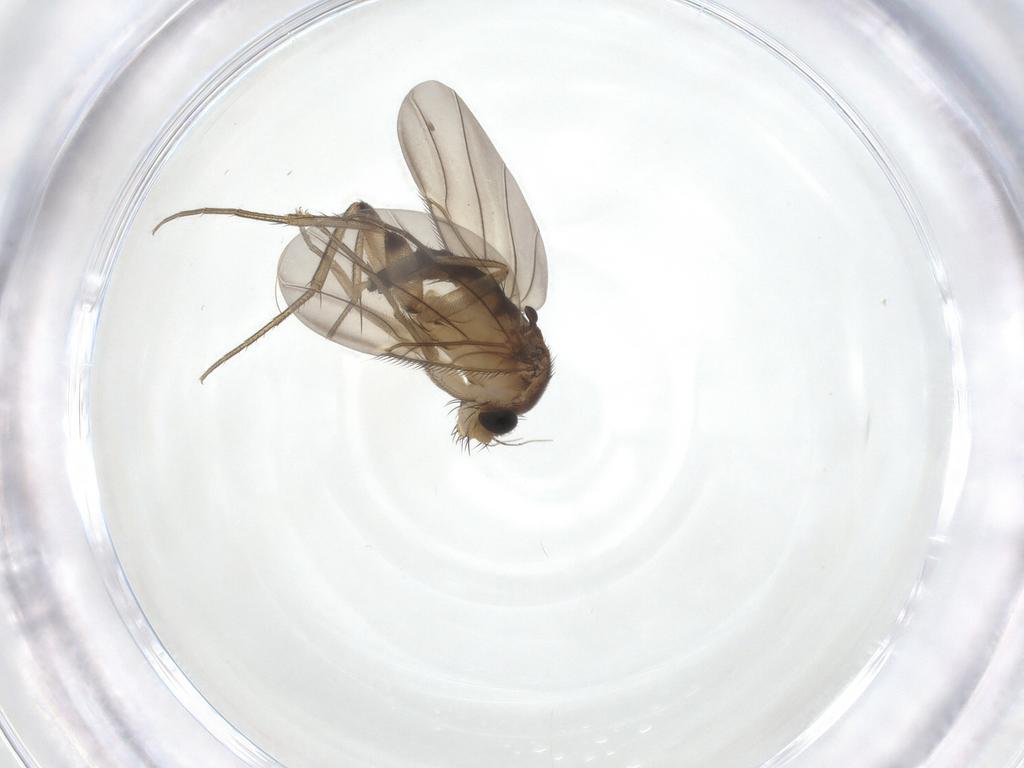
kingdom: Animalia
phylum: Arthropoda
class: Insecta
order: Diptera
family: Phoridae
